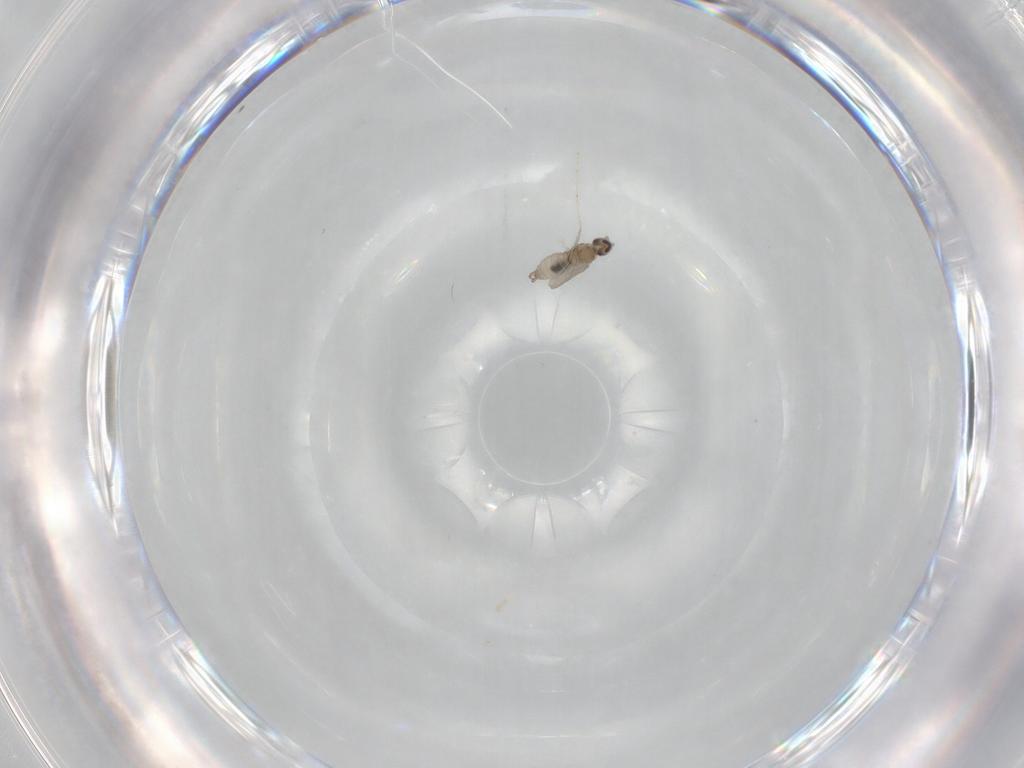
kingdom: Animalia
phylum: Arthropoda
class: Insecta
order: Diptera
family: Cecidomyiidae
